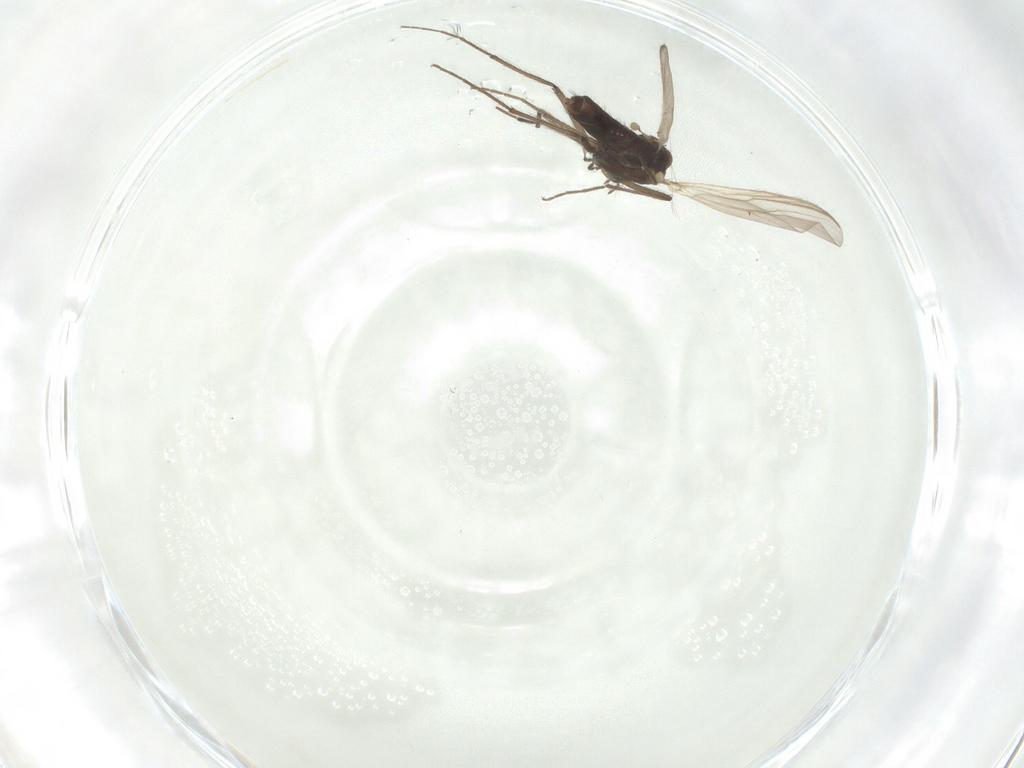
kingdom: Animalia
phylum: Arthropoda
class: Insecta
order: Diptera
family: Chironomidae
